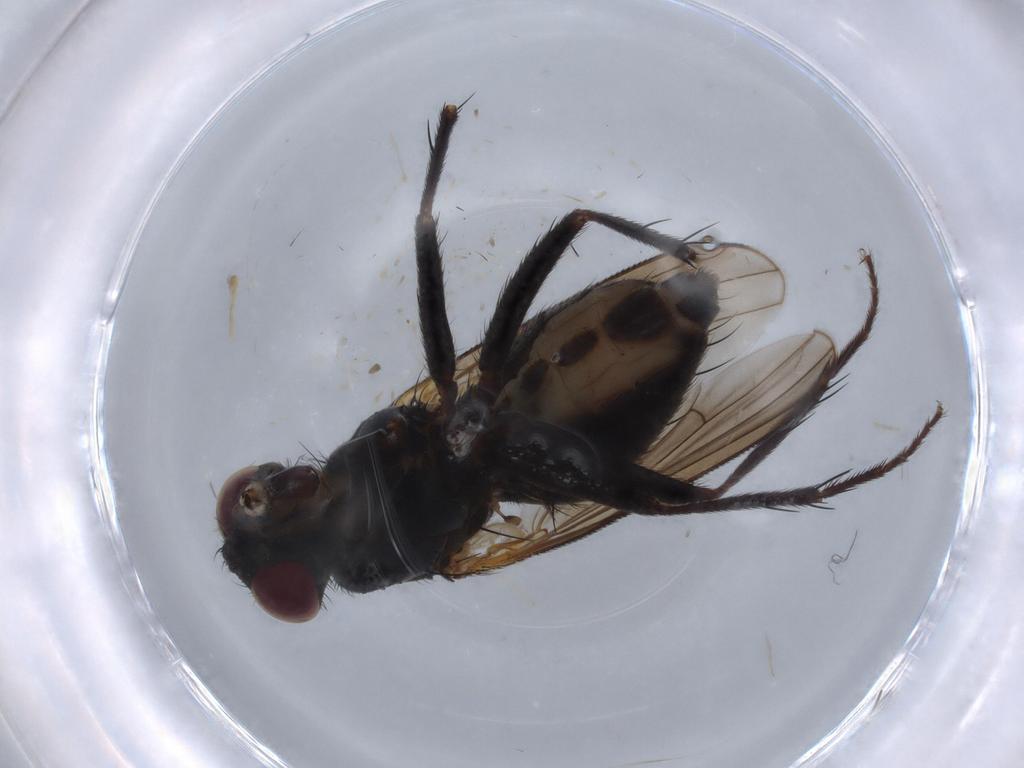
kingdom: Animalia
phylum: Arthropoda
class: Insecta
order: Diptera
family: Muscidae
